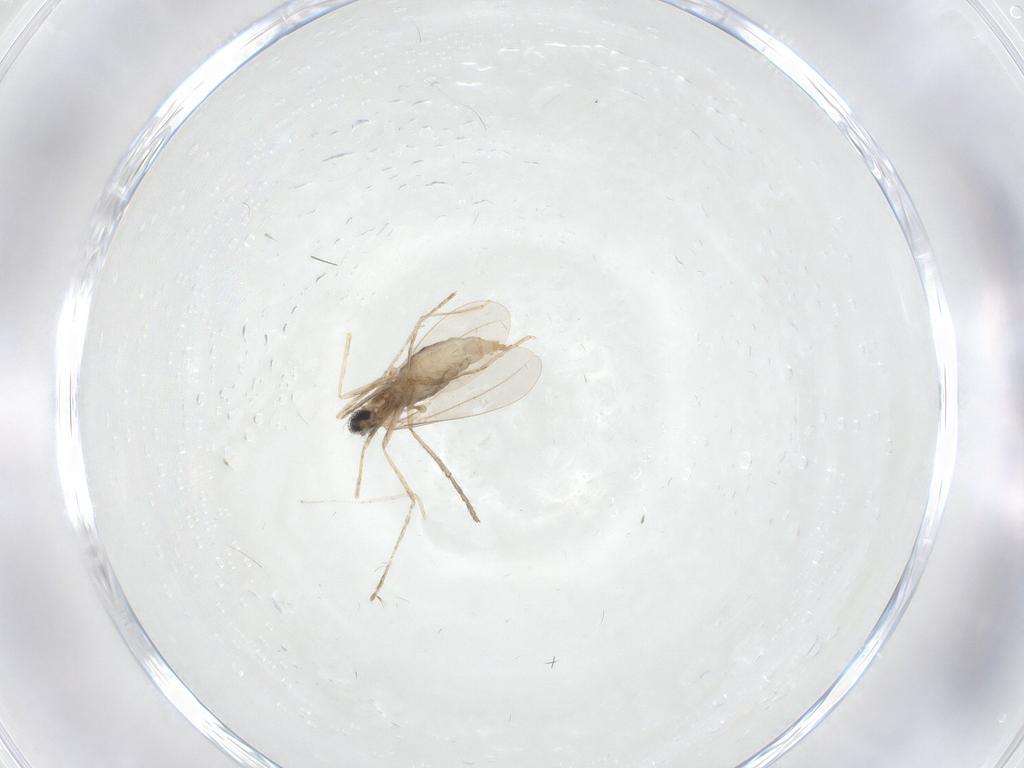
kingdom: Animalia
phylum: Arthropoda
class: Insecta
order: Diptera
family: Cecidomyiidae
